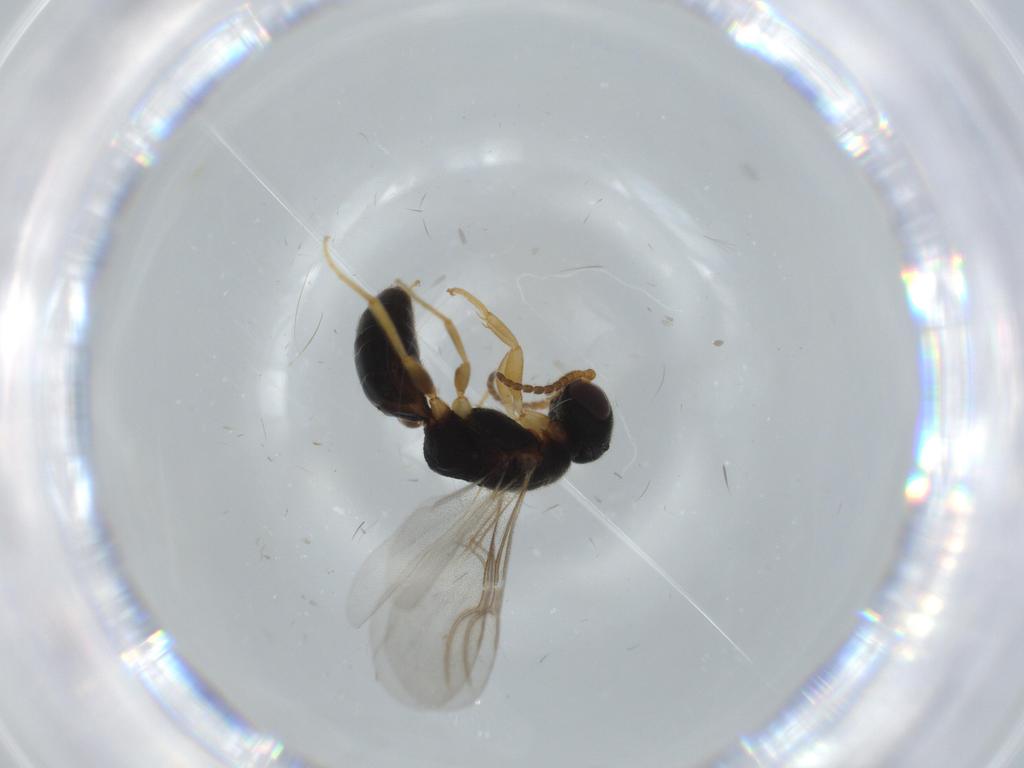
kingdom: Animalia
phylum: Arthropoda
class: Insecta
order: Hymenoptera
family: Bethylidae
